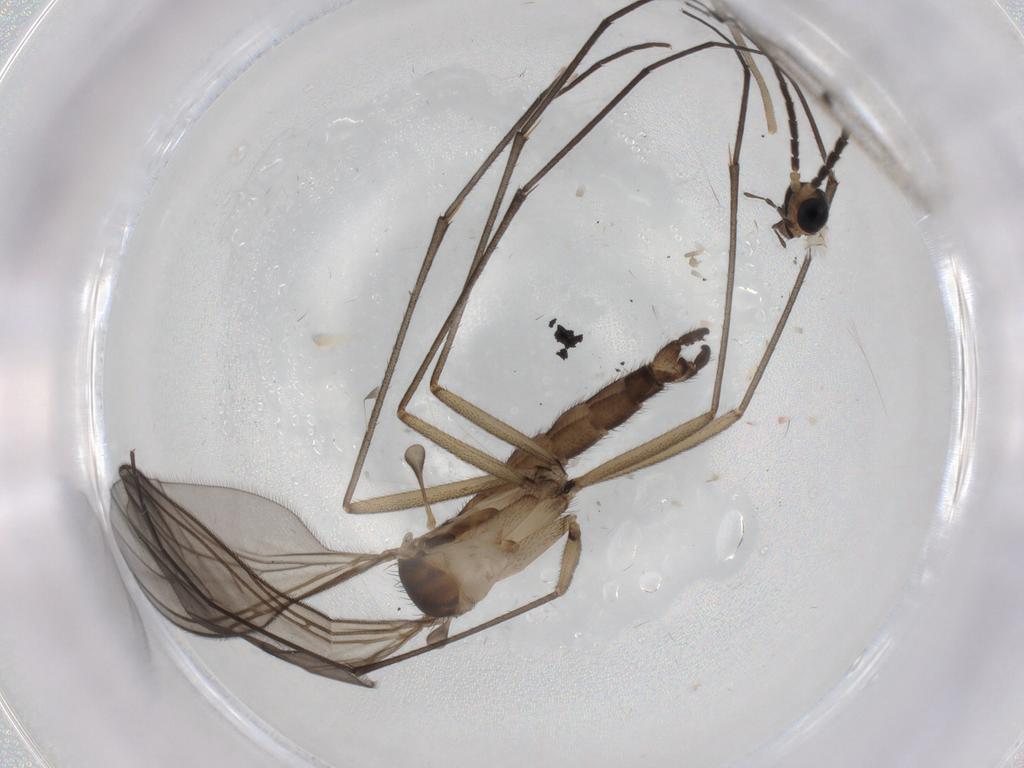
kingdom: Animalia
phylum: Arthropoda
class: Insecta
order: Diptera
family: Sciaridae
